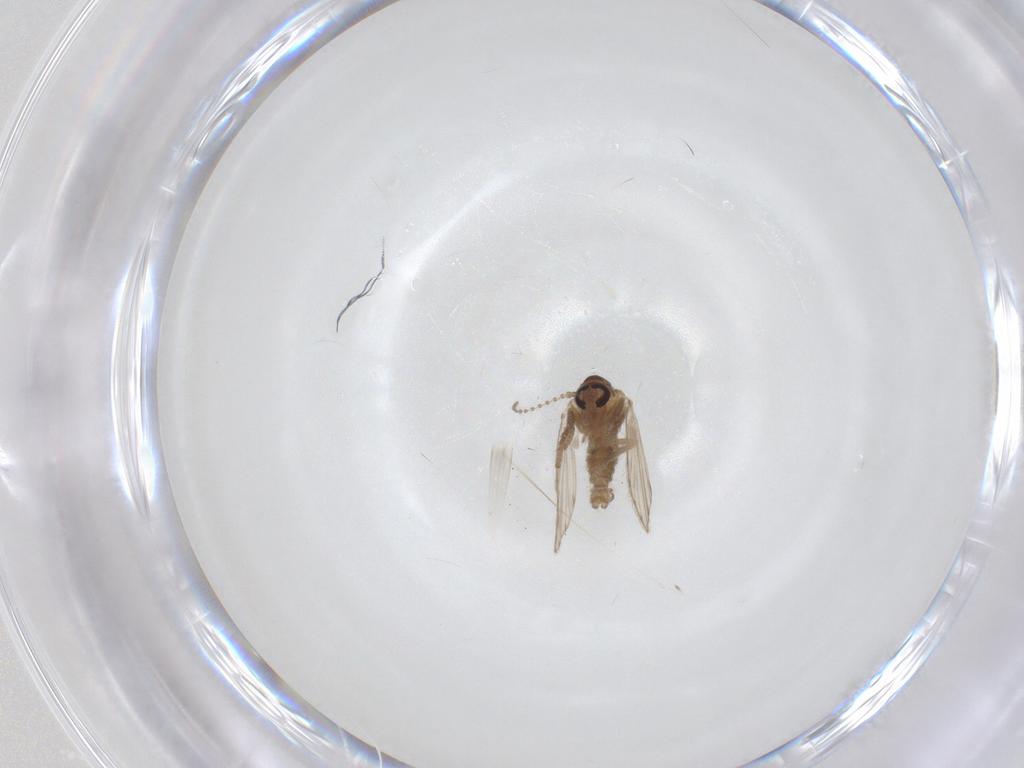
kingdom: Animalia
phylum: Arthropoda
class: Insecta
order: Diptera
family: Psychodidae
